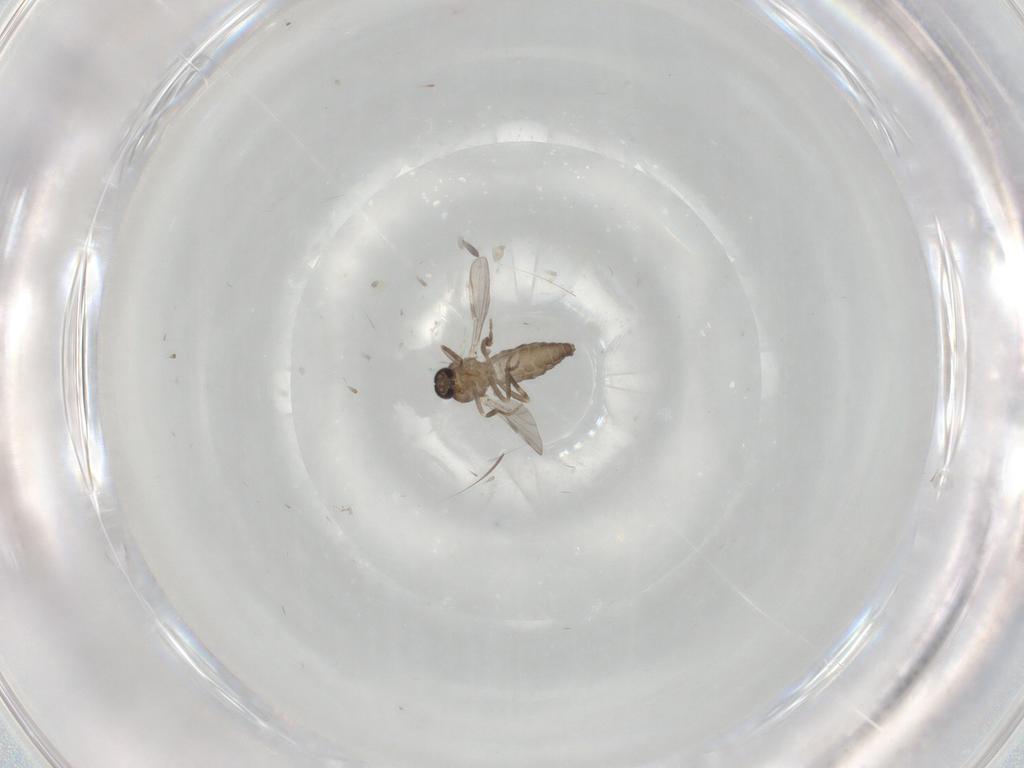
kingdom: Animalia
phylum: Arthropoda
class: Insecta
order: Diptera
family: Ceratopogonidae
